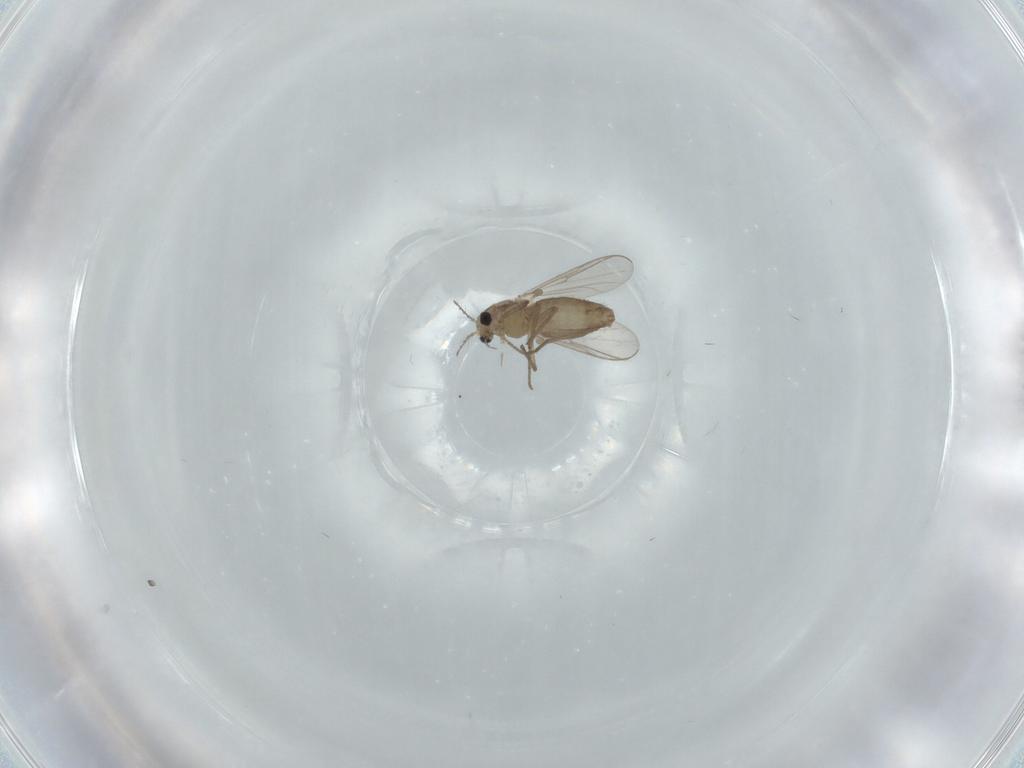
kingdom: Animalia
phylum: Arthropoda
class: Insecta
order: Diptera
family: Chironomidae
